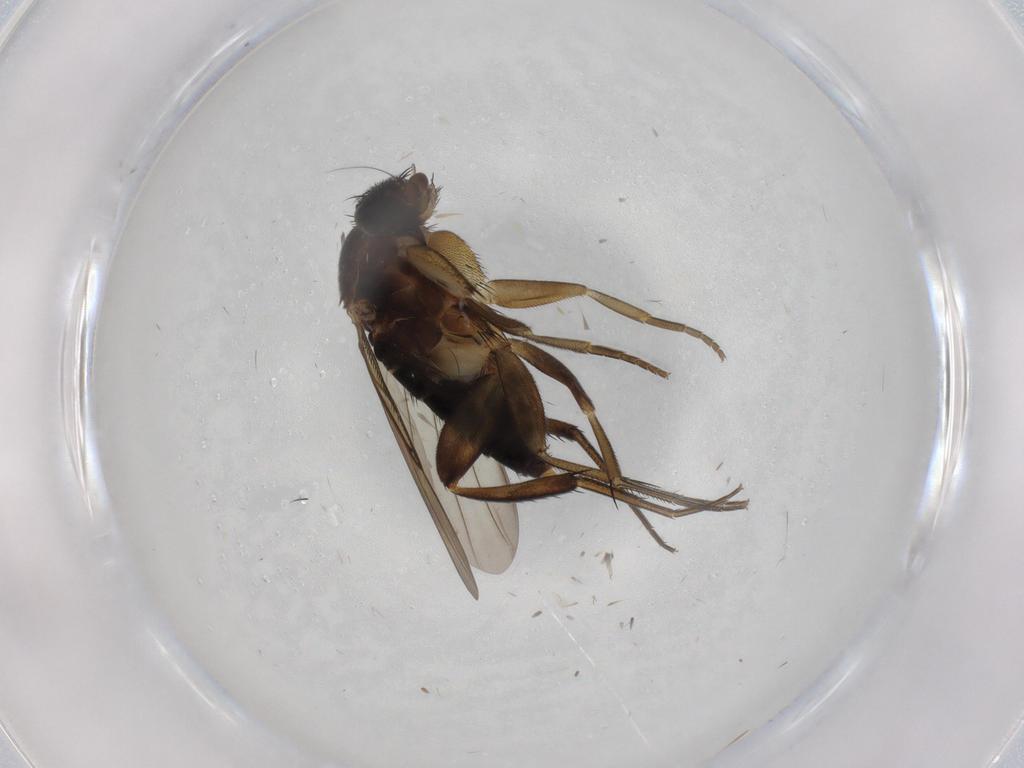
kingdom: Animalia
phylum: Arthropoda
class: Insecta
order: Diptera
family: Phoridae
